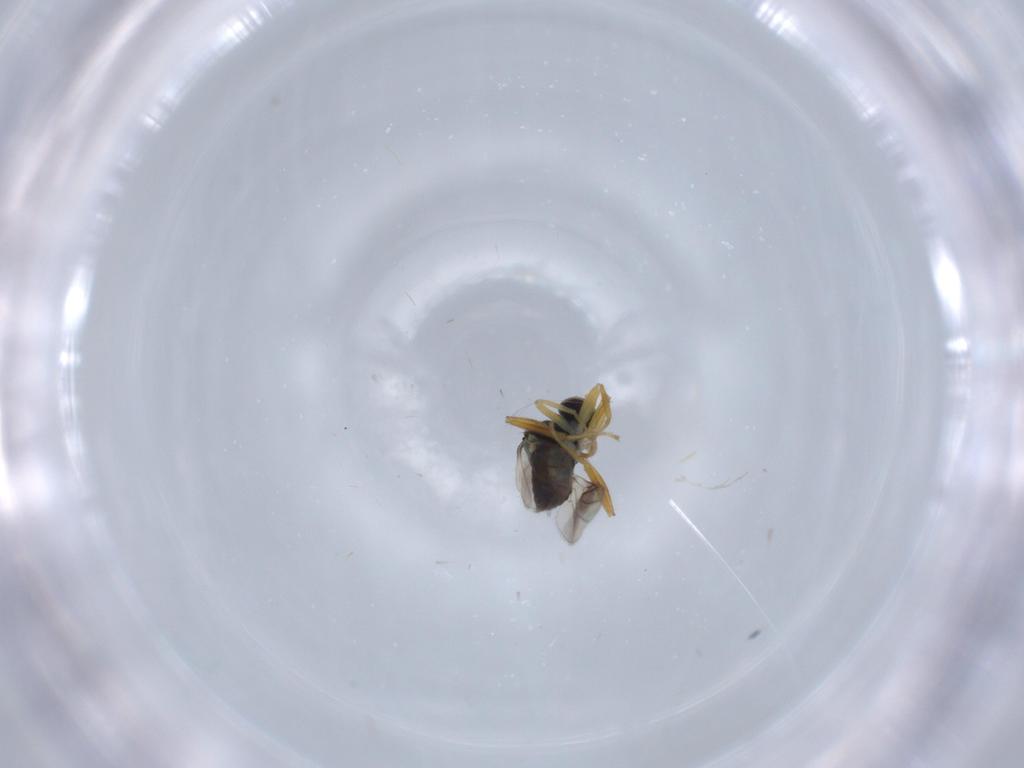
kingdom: Animalia
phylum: Arthropoda
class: Insecta
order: Diptera
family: Hybotidae
